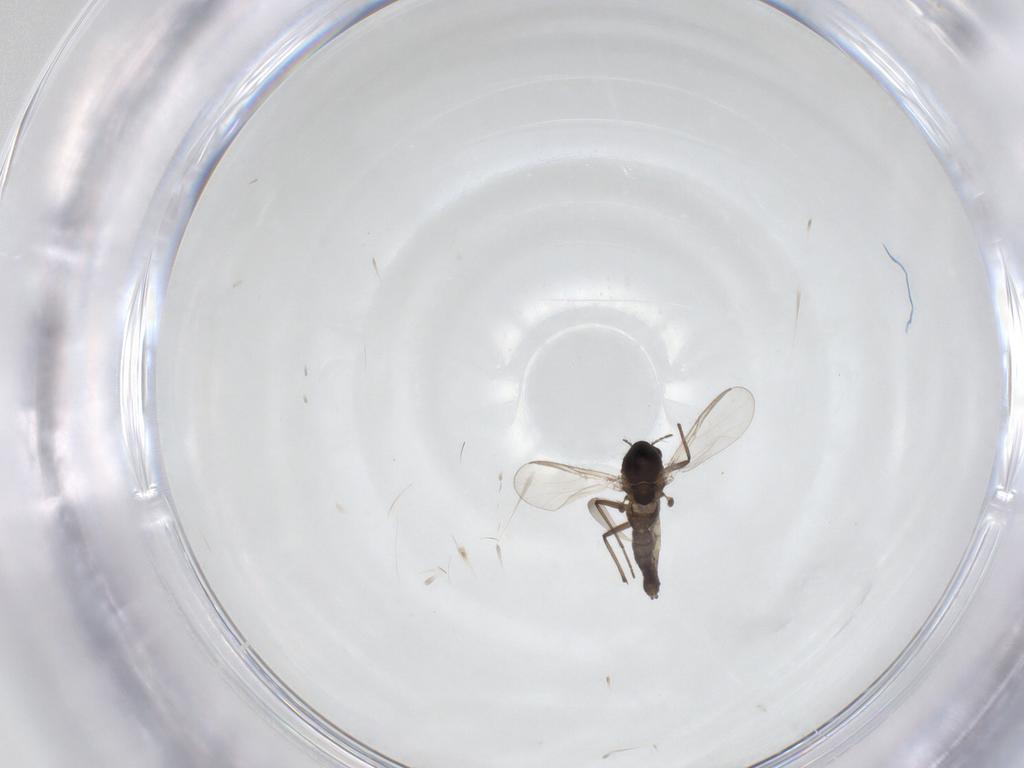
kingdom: Animalia
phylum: Arthropoda
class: Insecta
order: Diptera
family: Chironomidae
